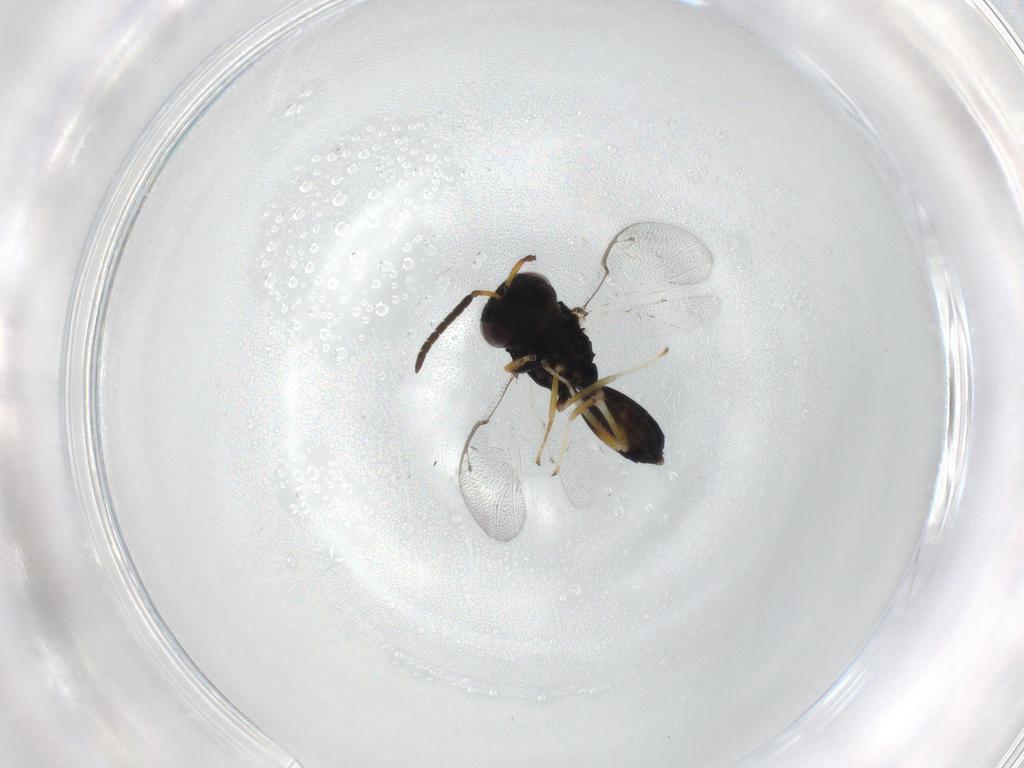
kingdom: Animalia
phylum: Arthropoda
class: Insecta
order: Hymenoptera
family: Pteromalidae
